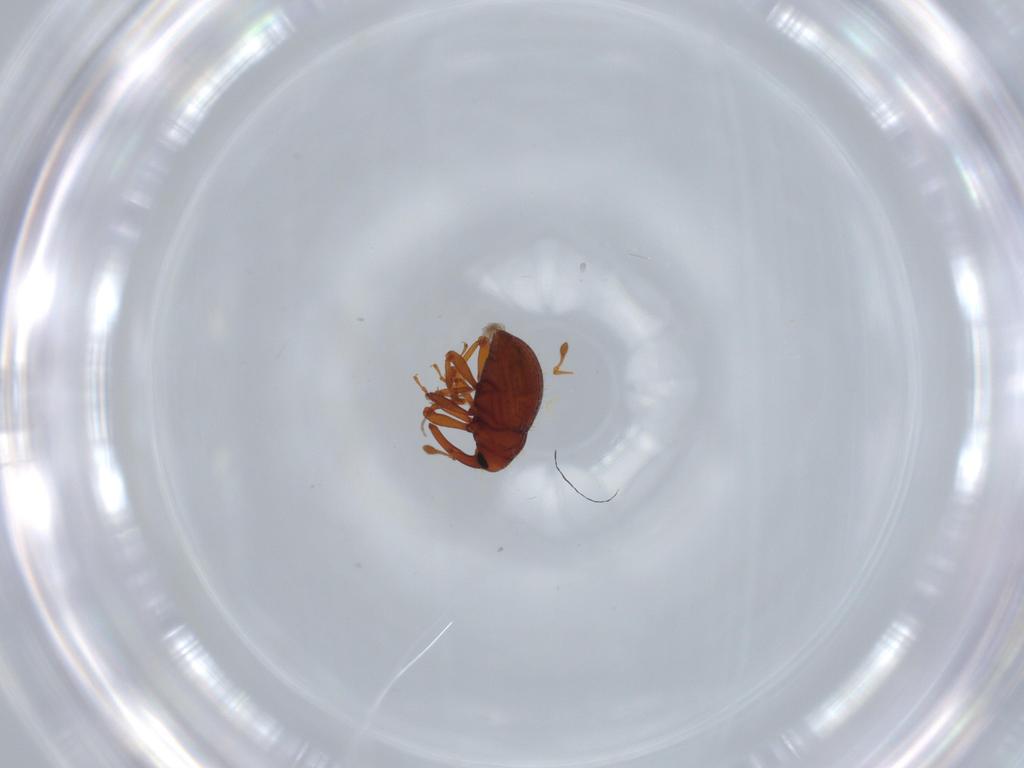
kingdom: Animalia
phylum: Arthropoda
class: Insecta
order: Coleoptera
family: Curculionidae
